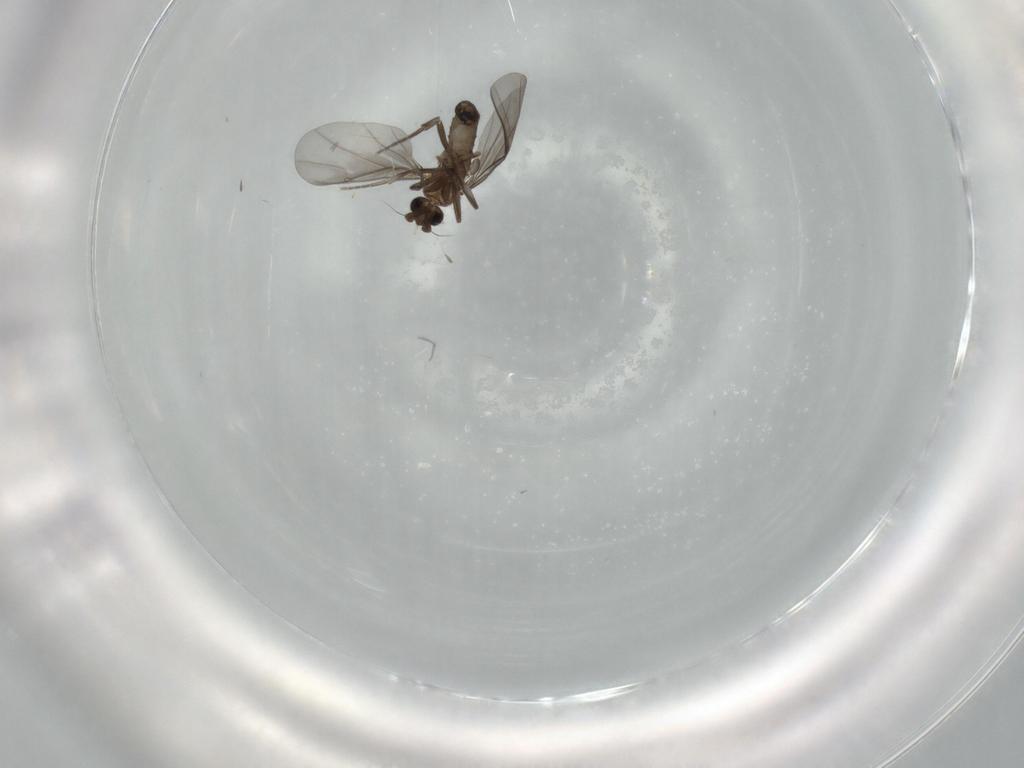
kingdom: Animalia
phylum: Arthropoda
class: Insecta
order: Diptera
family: Phoridae
